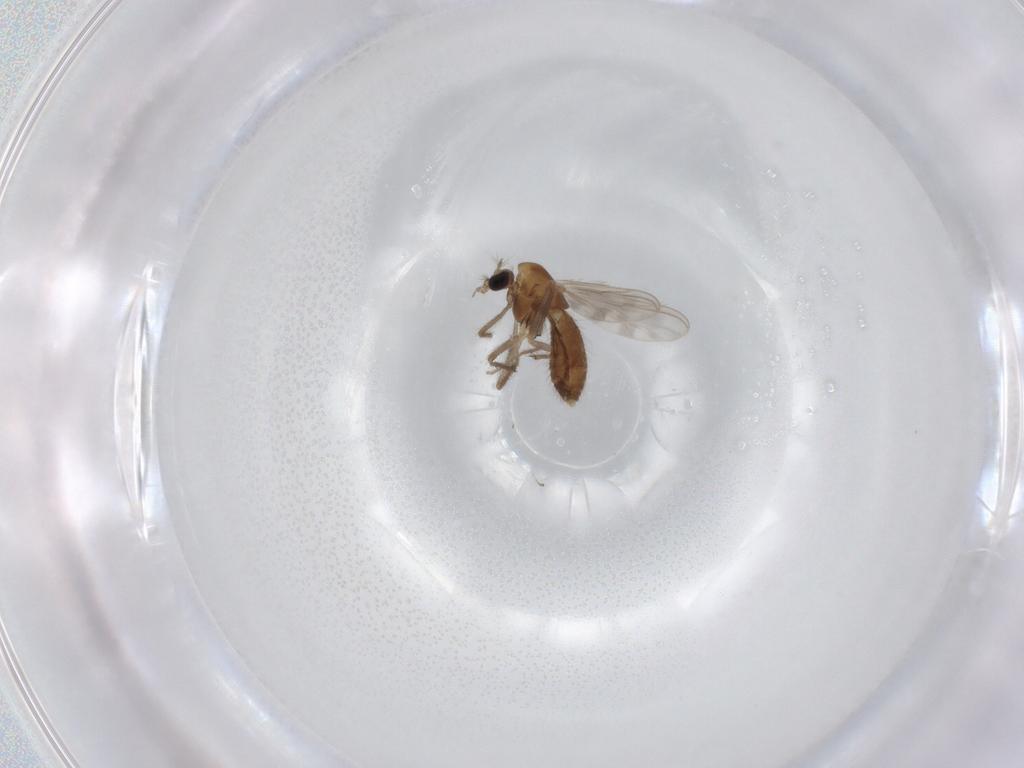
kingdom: Animalia
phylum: Arthropoda
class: Insecta
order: Diptera
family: Chironomidae
